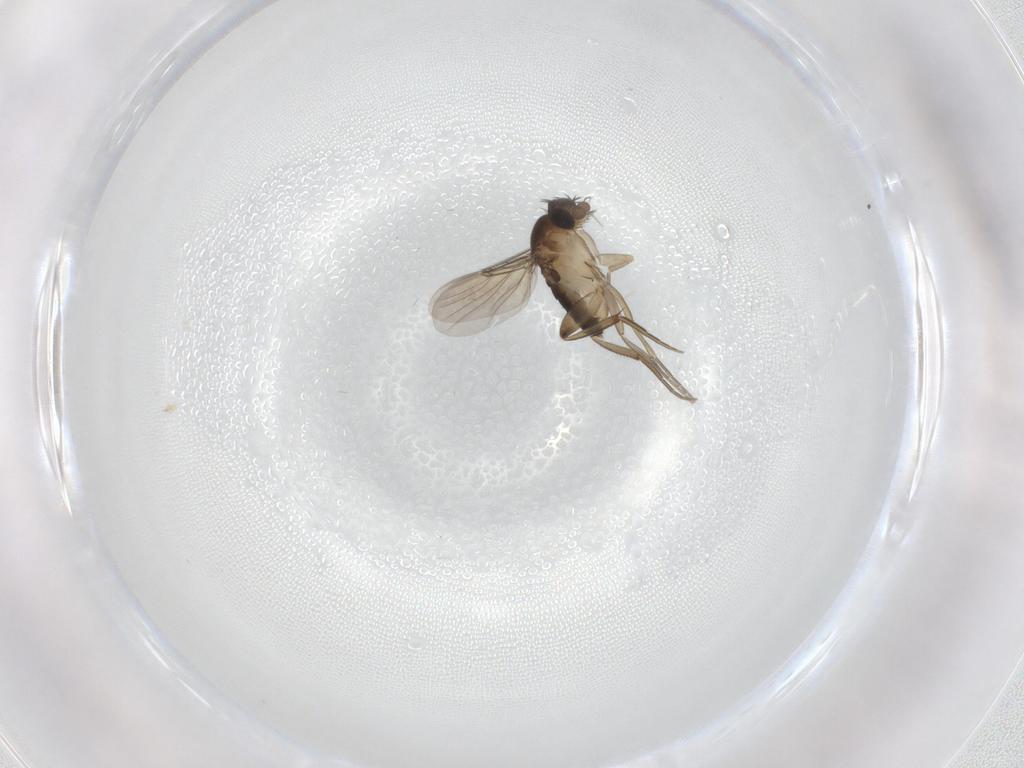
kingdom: Animalia
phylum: Arthropoda
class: Insecta
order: Diptera
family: Phoridae
